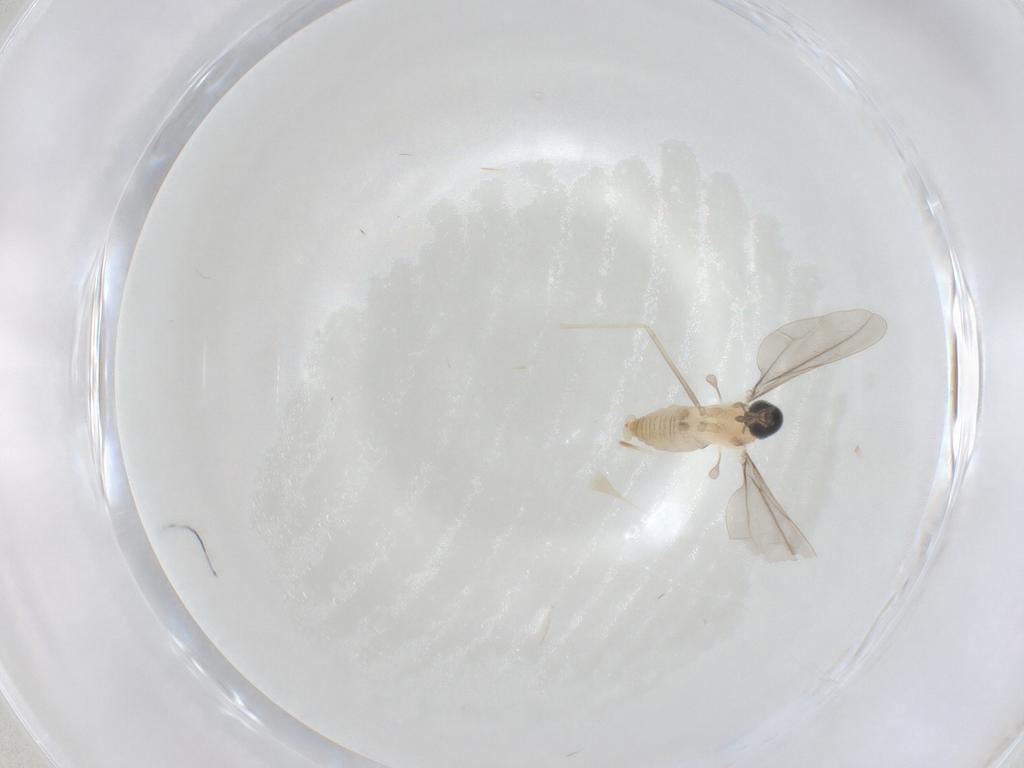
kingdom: Animalia
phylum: Arthropoda
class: Insecta
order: Diptera
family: Cecidomyiidae
